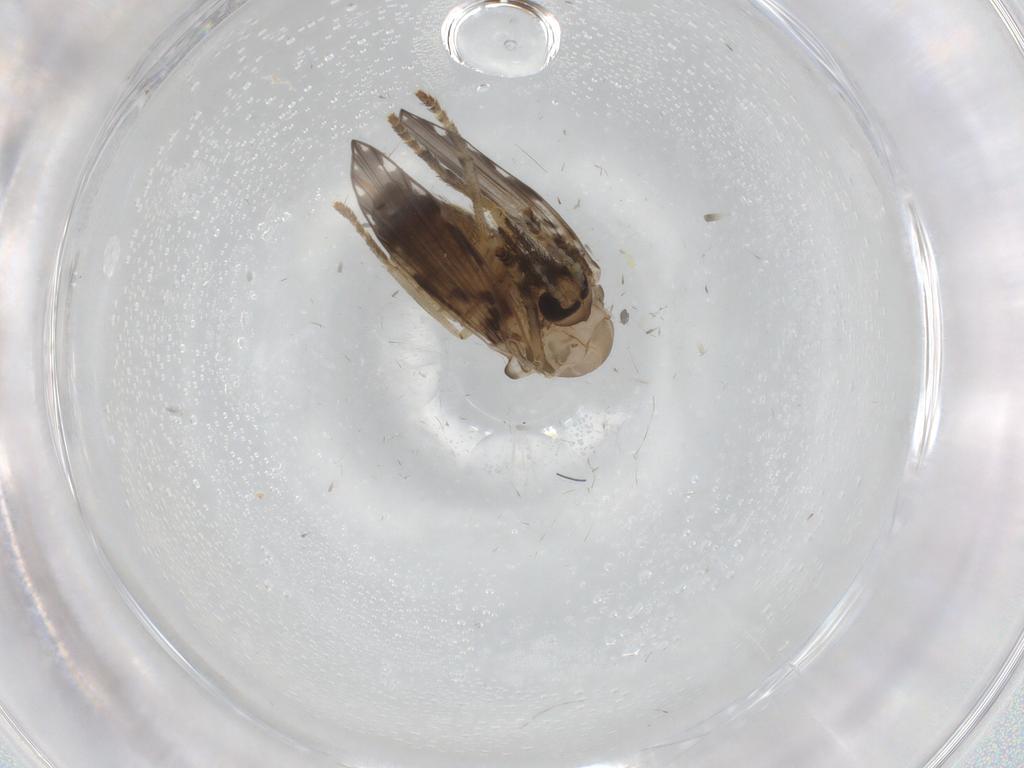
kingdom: Animalia
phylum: Arthropoda
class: Insecta
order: Diptera
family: Psychodidae
